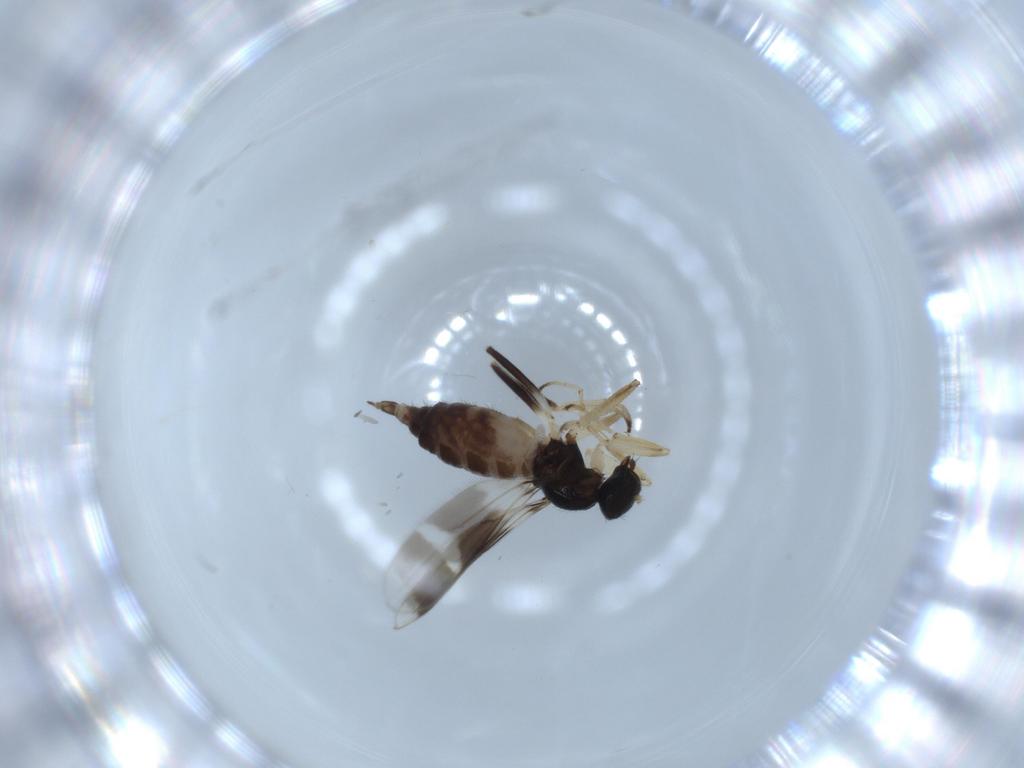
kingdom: Animalia
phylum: Arthropoda
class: Insecta
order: Diptera
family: Hybotidae
